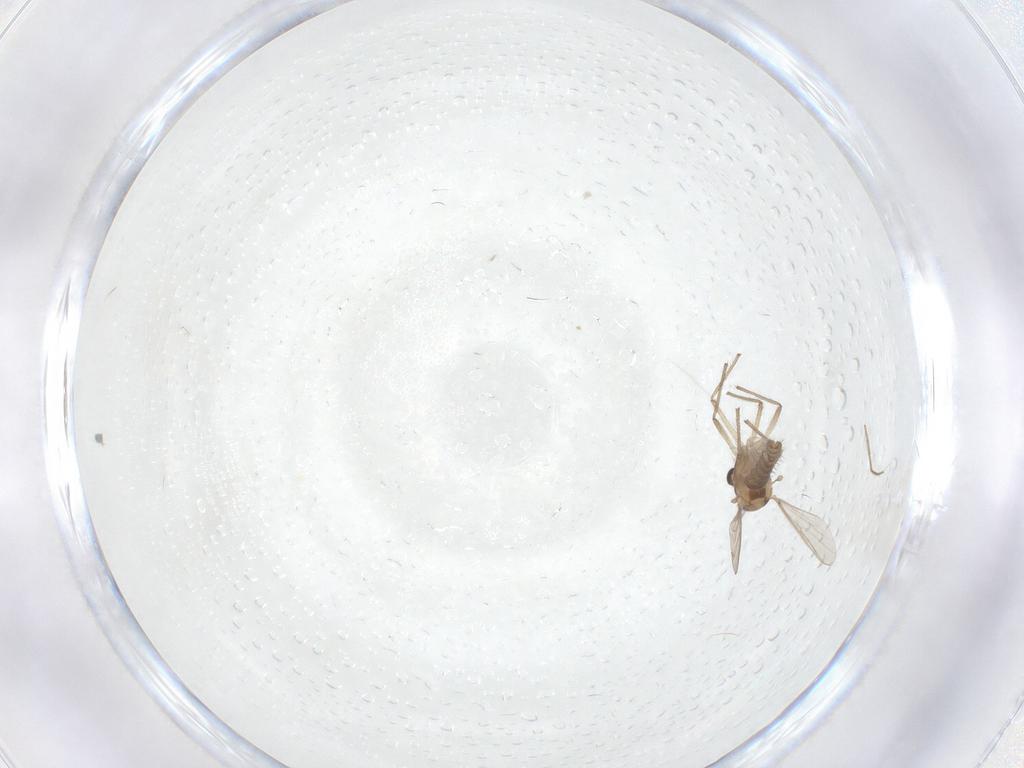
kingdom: Animalia
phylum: Arthropoda
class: Insecta
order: Diptera
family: Chironomidae
